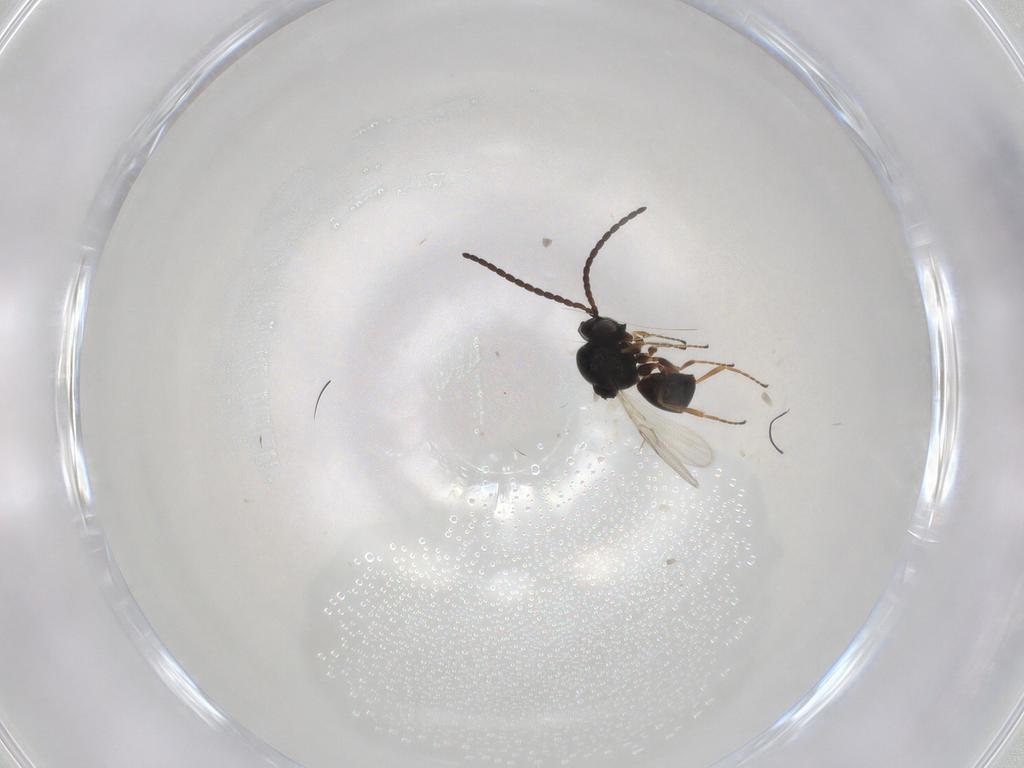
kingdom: Animalia
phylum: Arthropoda
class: Insecta
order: Hymenoptera
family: Figitidae
